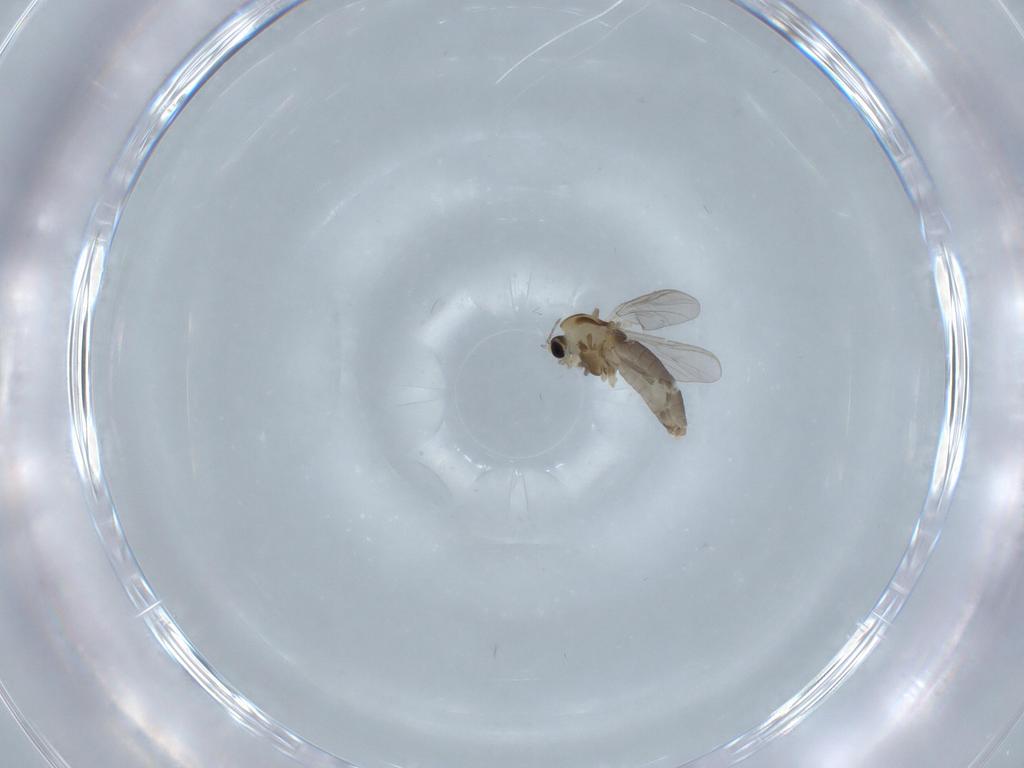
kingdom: Animalia
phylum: Arthropoda
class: Insecta
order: Diptera
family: Chironomidae
